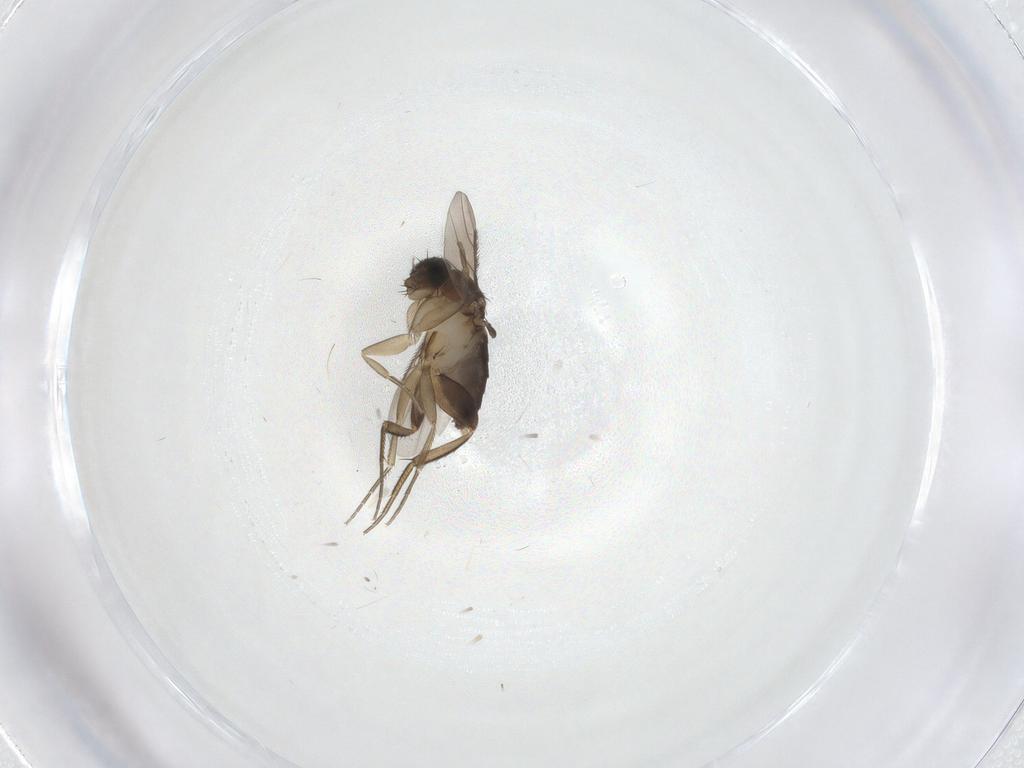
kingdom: Animalia
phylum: Arthropoda
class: Insecta
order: Diptera
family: Phoridae
